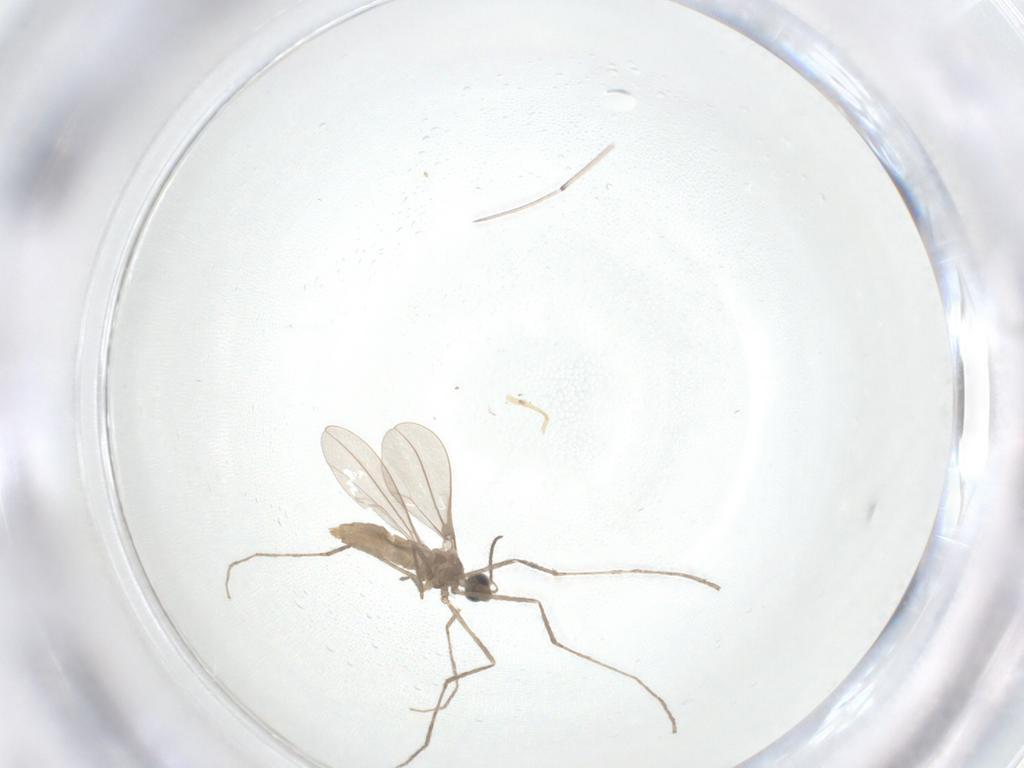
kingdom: Animalia
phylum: Arthropoda
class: Insecta
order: Diptera
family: Cecidomyiidae
